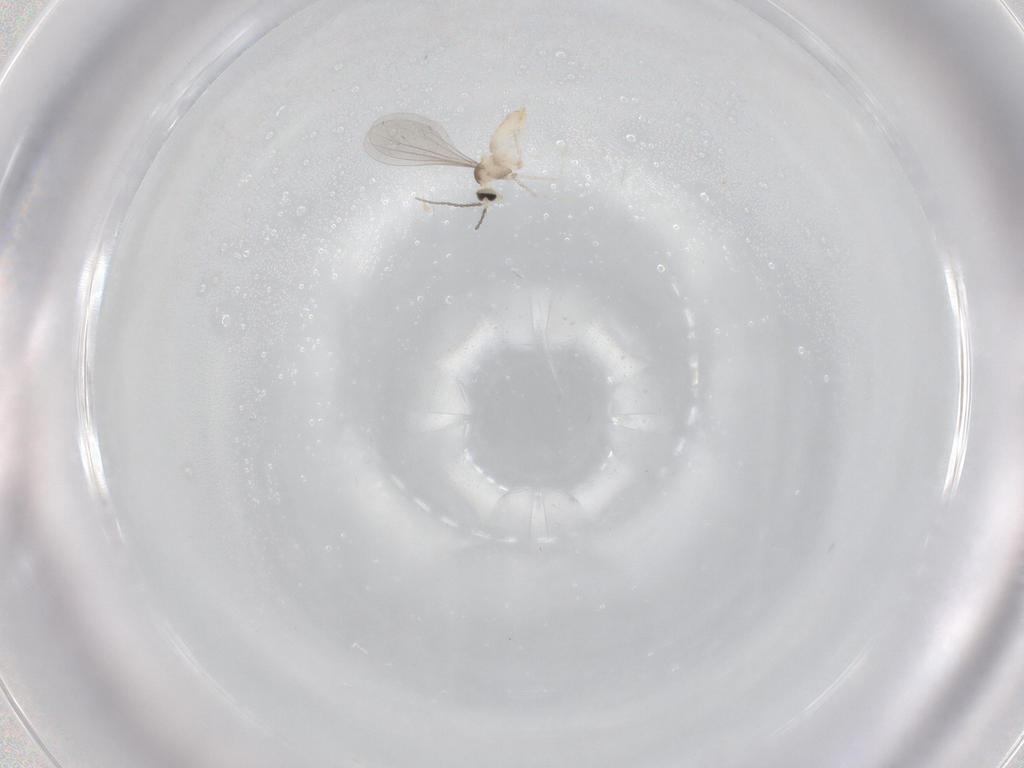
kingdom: Animalia
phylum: Arthropoda
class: Insecta
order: Diptera
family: Cecidomyiidae
